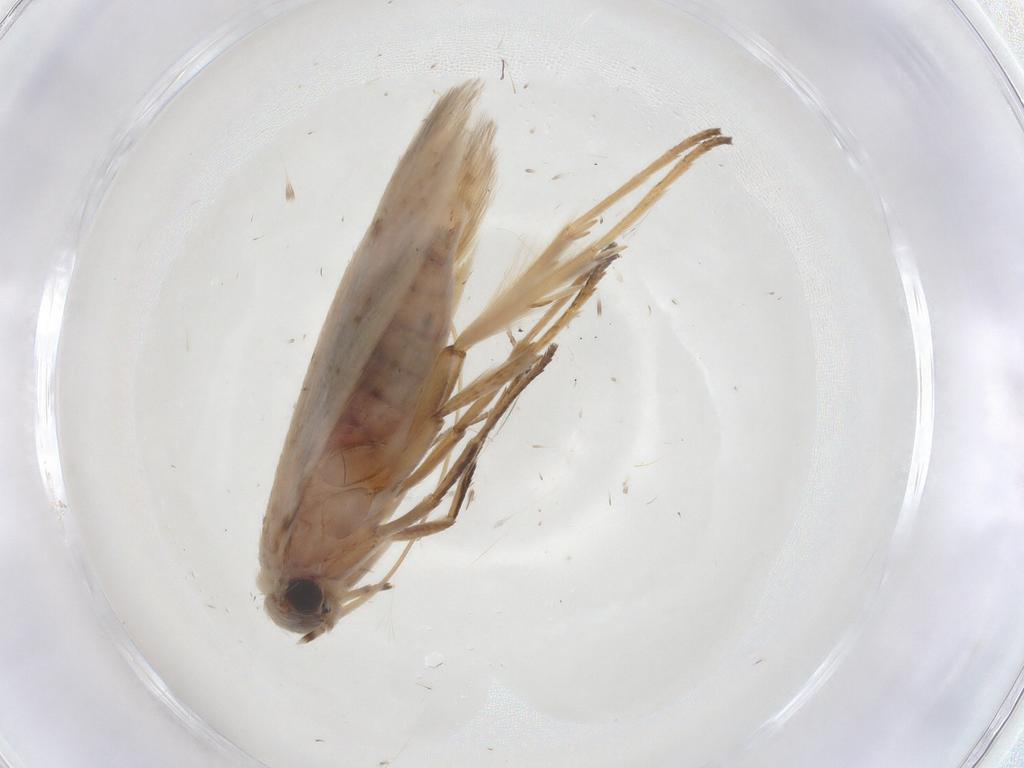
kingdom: Animalia
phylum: Arthropoda
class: Insecta
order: Lepidoptera
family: Scythrididae
